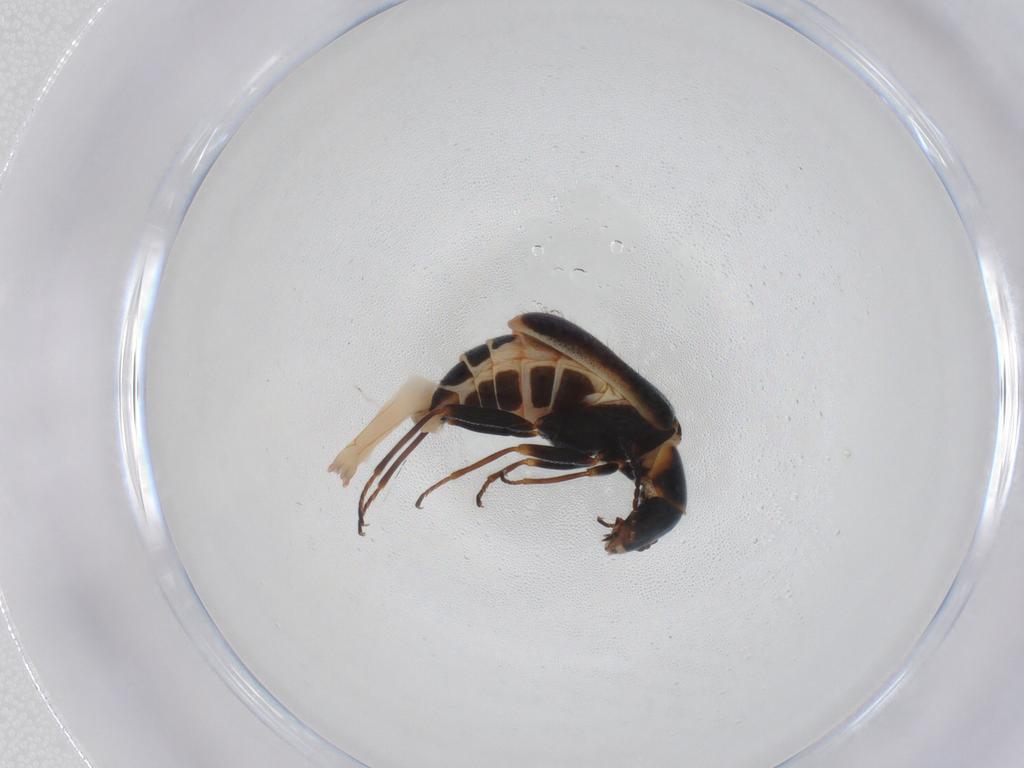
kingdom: Animalia
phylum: Arthropoda
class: Insecta
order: Coleoptera
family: Melyridae
